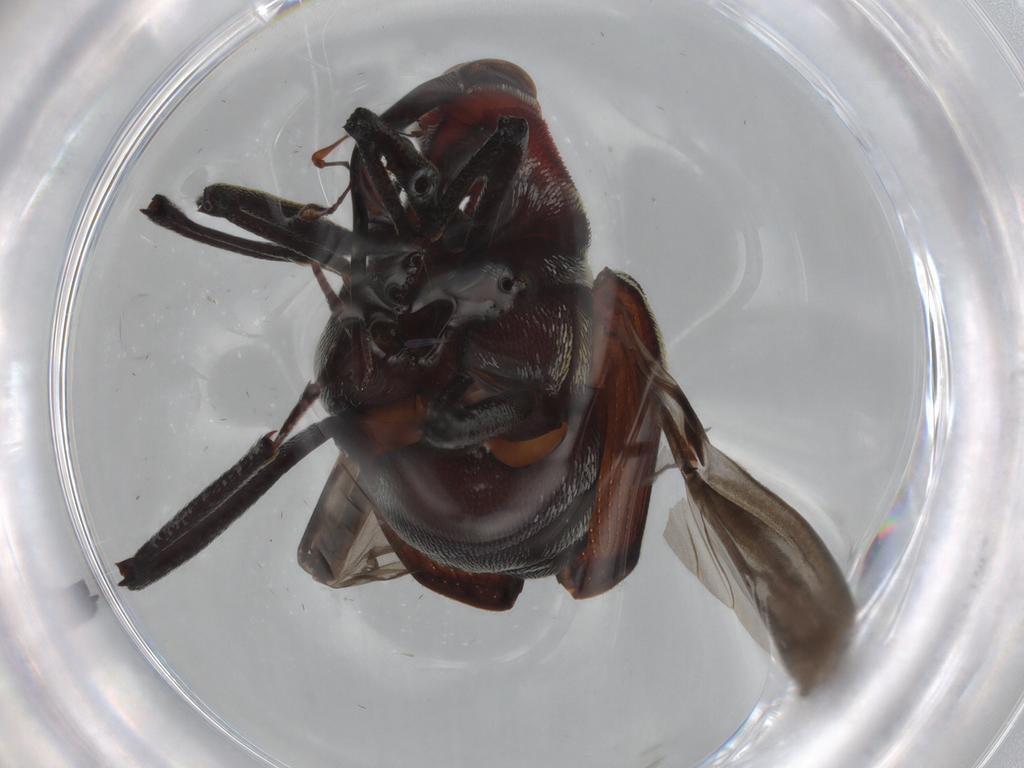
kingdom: Animalia
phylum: Arthropoda
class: Insecta
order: Coleoptera
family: Curculionidae
